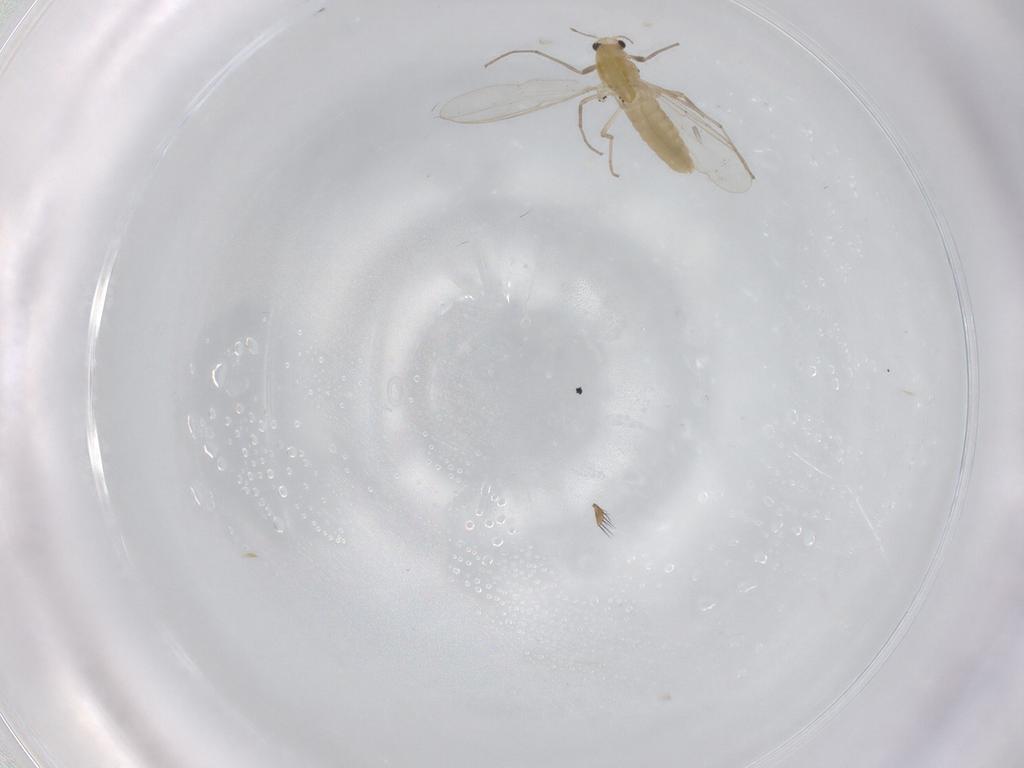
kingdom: Animalia
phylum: Arthropoda
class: Insecta
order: Diptera
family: Chironomidae
